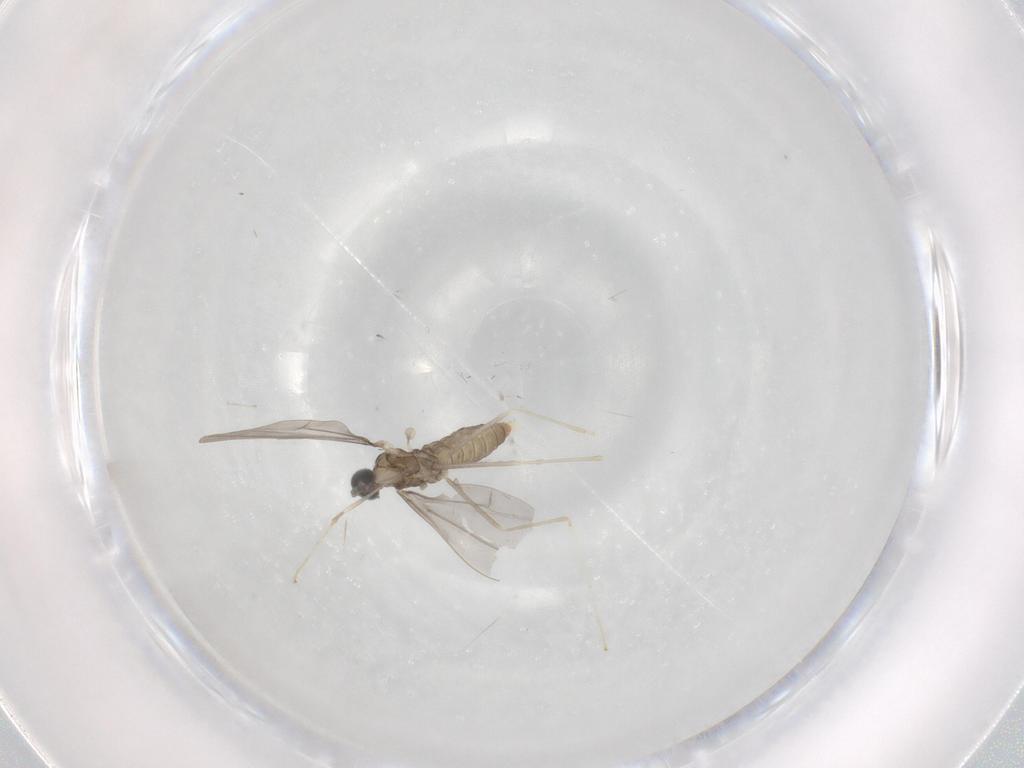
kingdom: Animalia
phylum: Arthropoda
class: Insecta
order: Diptera
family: Cecidomyiidae
